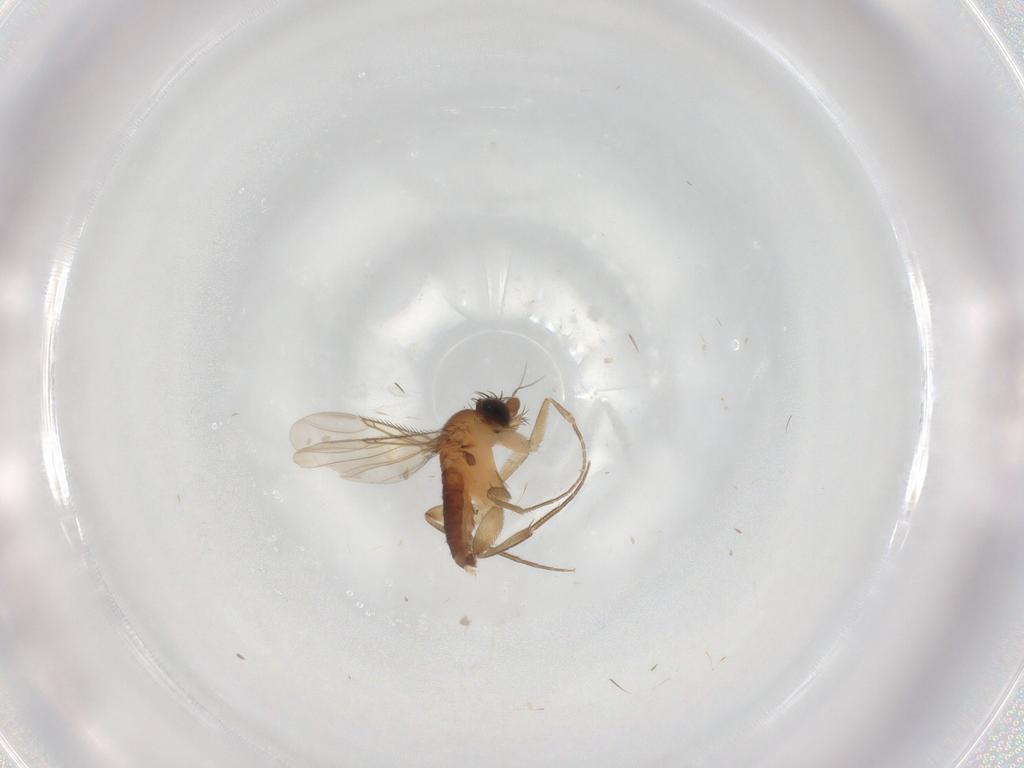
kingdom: Animalia
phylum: Arthropoda
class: Insecta
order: Diptera
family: Phoridae
